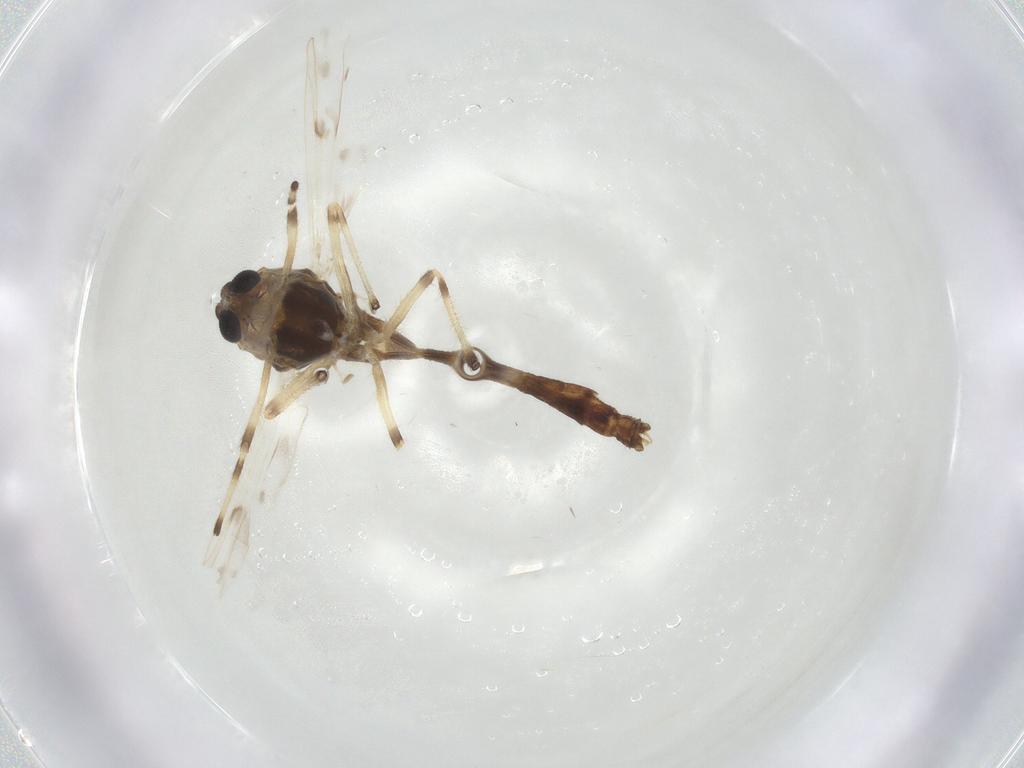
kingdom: Animalia
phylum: Arthropoda
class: Insecta
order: Diptera
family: Chironomidae
